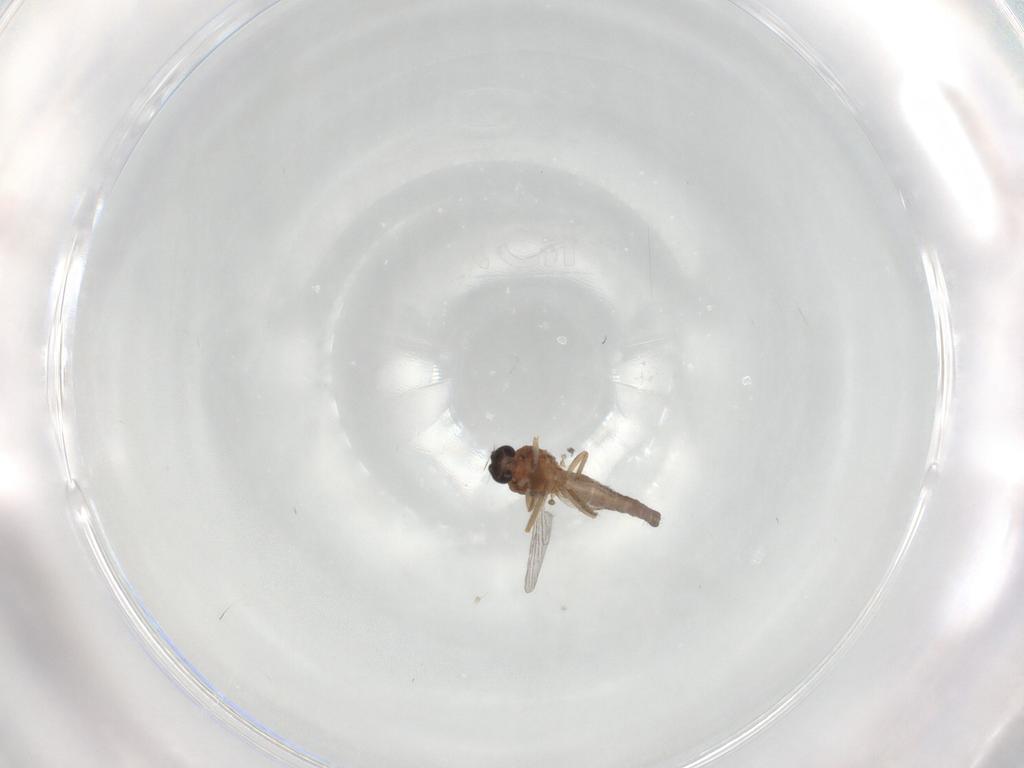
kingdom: Animalia
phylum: Arthropoda
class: Insecta
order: Diptera
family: Ceratopogonidae
